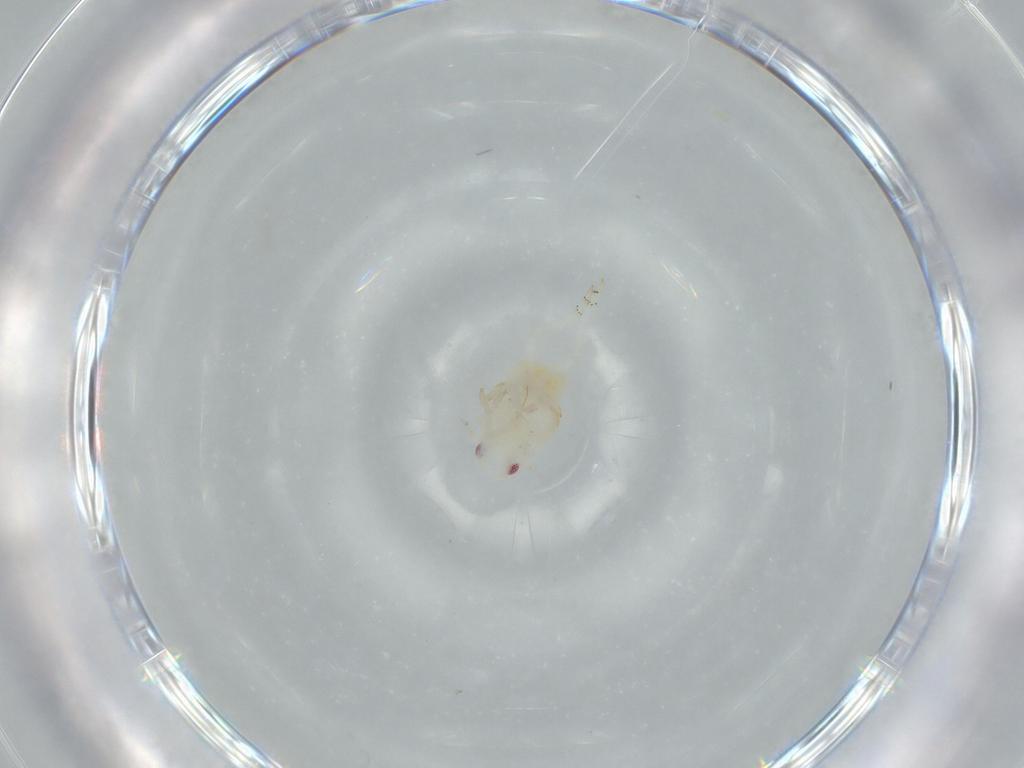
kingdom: Animalia
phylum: Arthropoda
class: Insecta
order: Hemiptera
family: Flatidae
